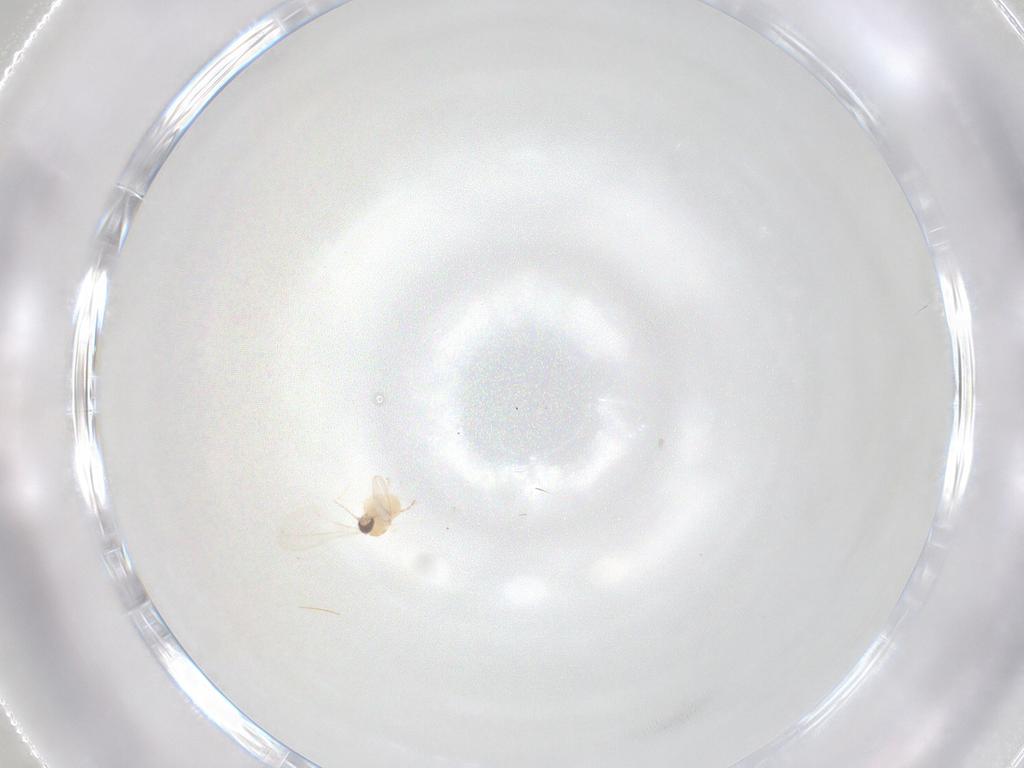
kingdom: Animalia
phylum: Arthropoda
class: Insecta
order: Diptera
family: Cecidomyiidae
